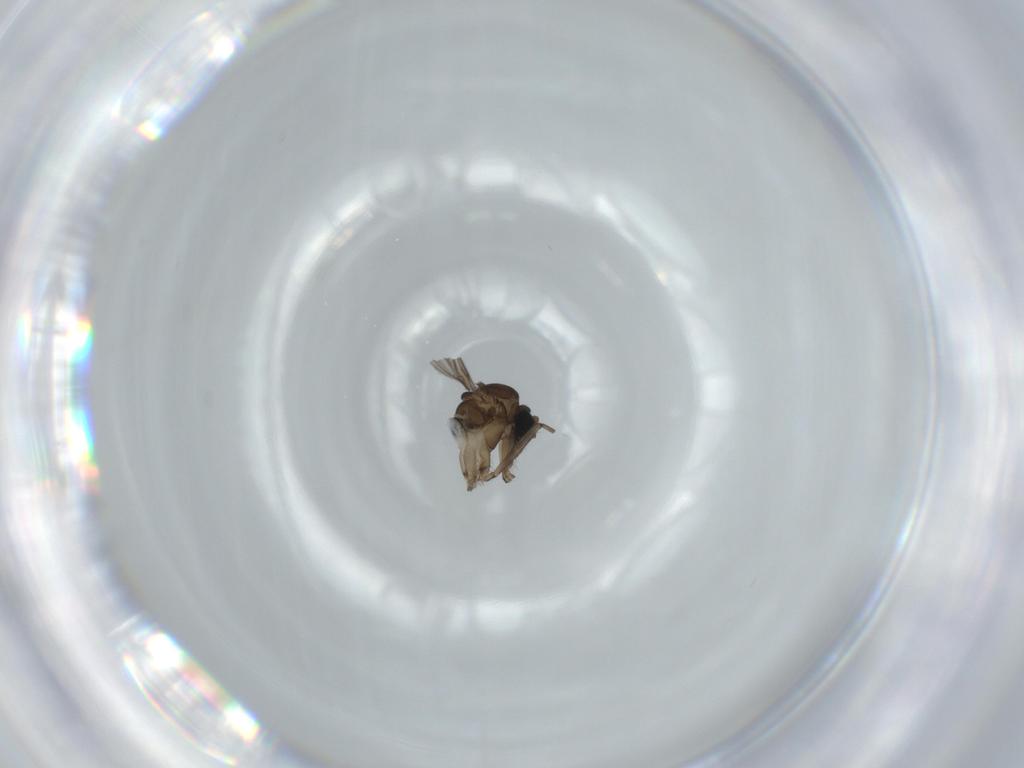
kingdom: Animalia
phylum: Arthropoda
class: Insecta
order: Diptera
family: Sciaridae
